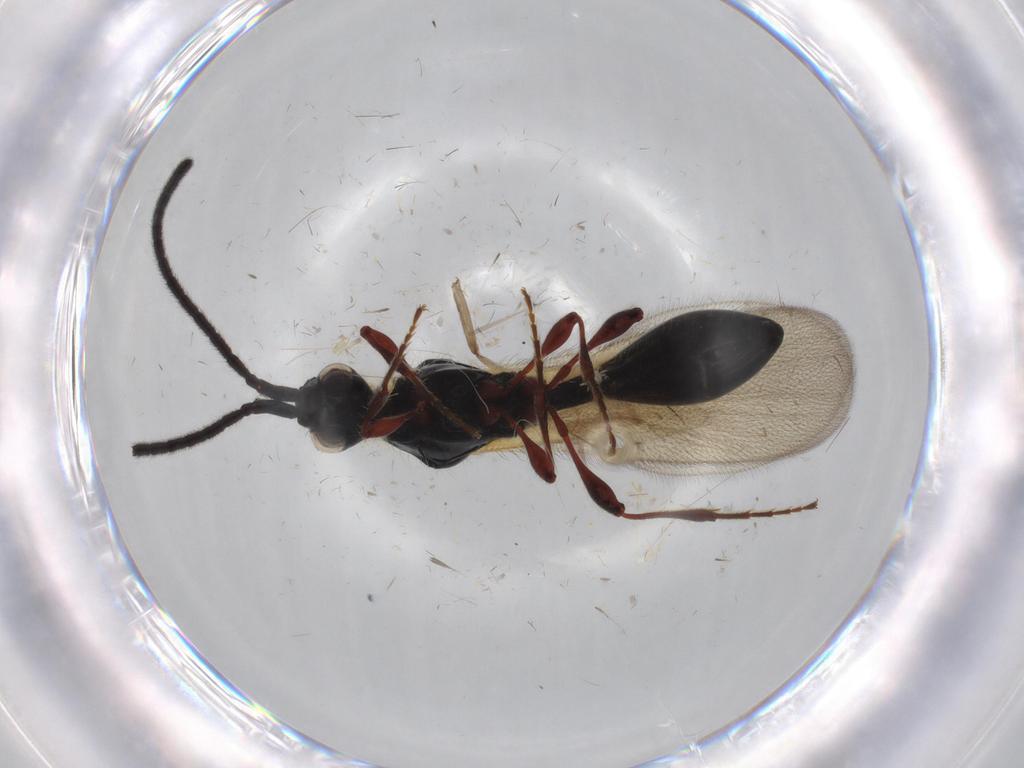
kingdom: Animalia
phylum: Arthropoda
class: Insecta
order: Hymenoptera
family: Diapriidae
